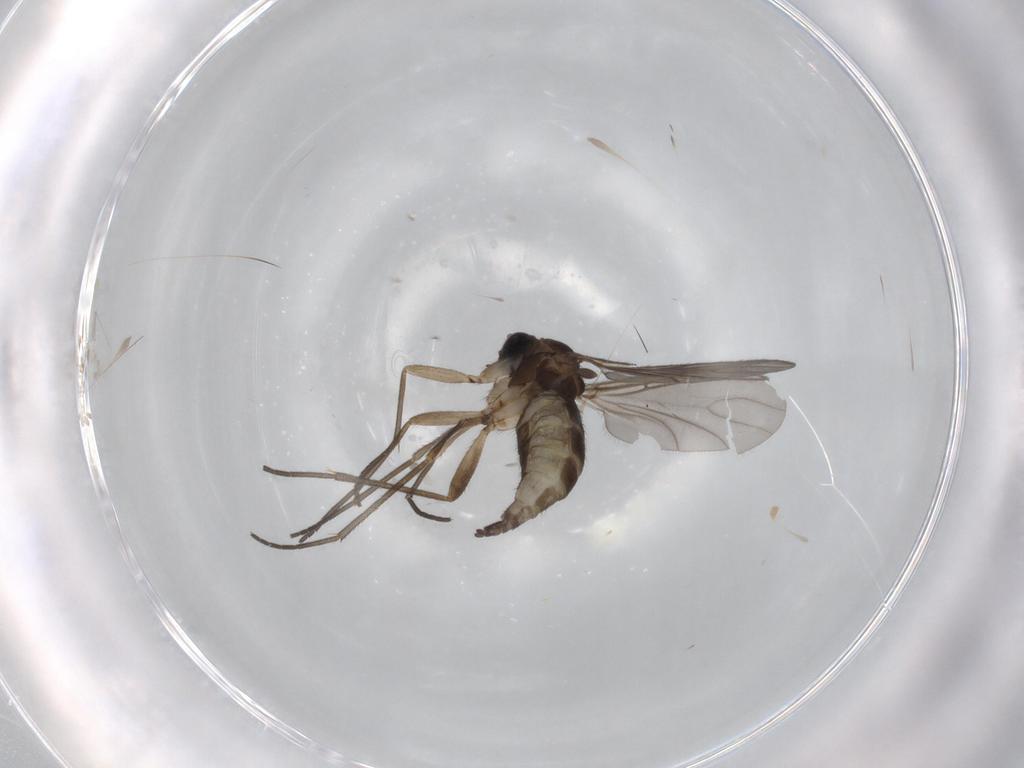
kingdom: Animalia
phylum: Arthropoda
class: Insecta
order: Diptera
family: Sciaridae
